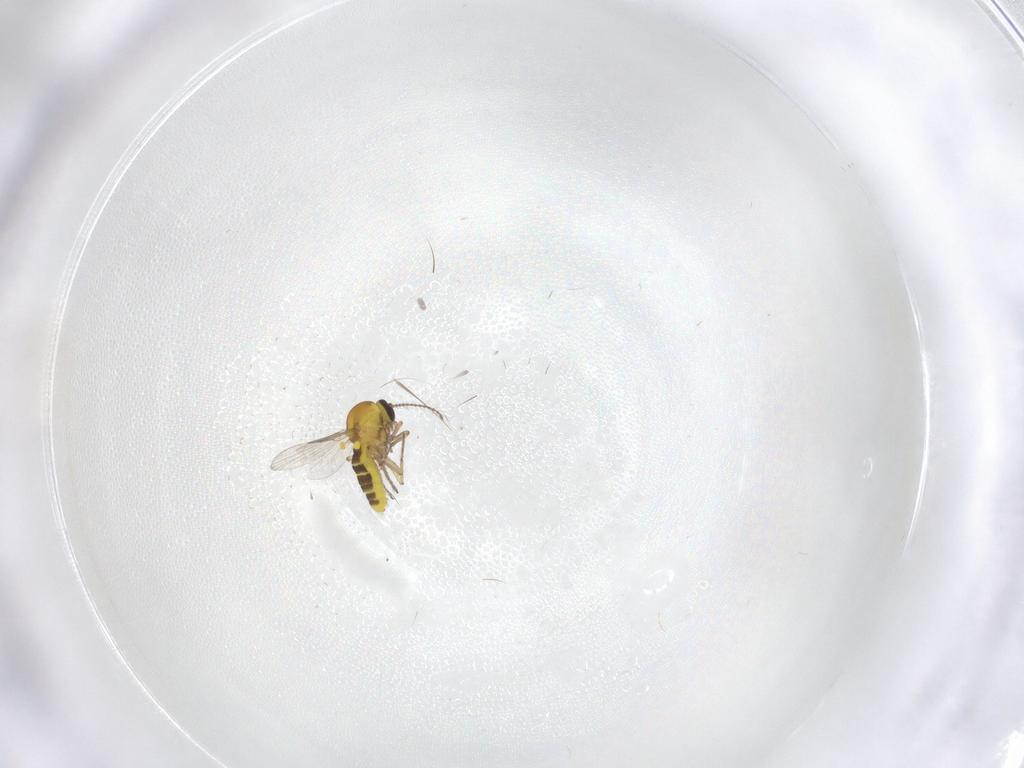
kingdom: Animalia
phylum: Arthropoda
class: Insecta
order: Diptera
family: Ceratopogonidae
